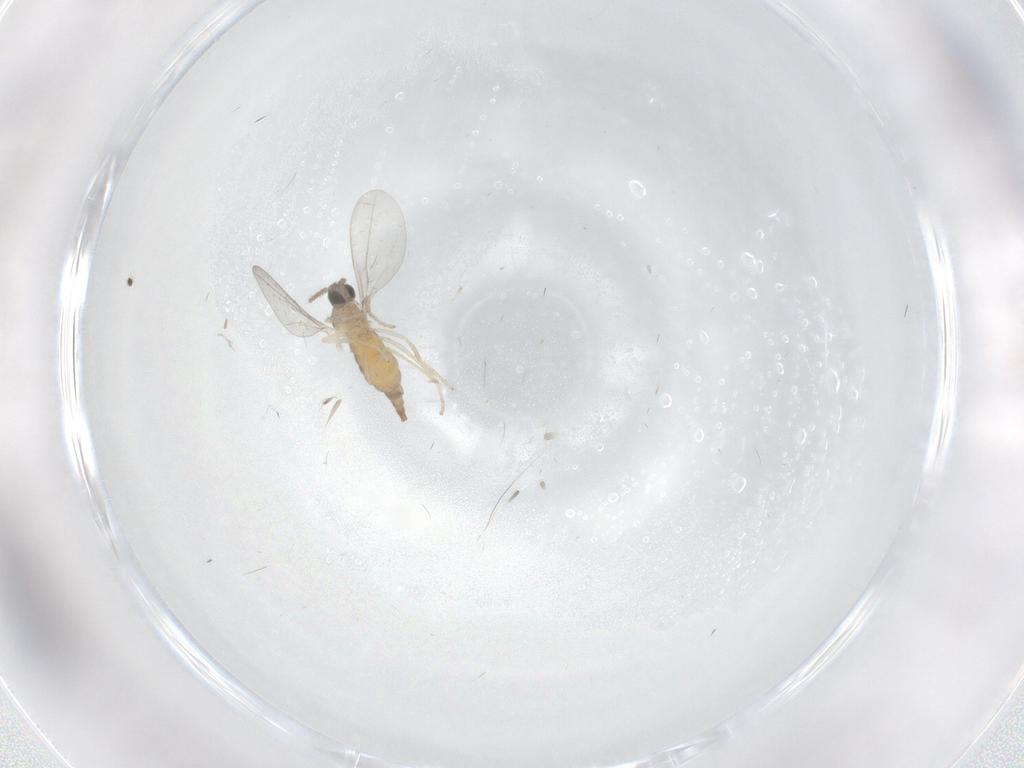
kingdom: Animalia
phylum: Arthropoda
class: Insecta
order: Diptera
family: Cecidomyiidae
